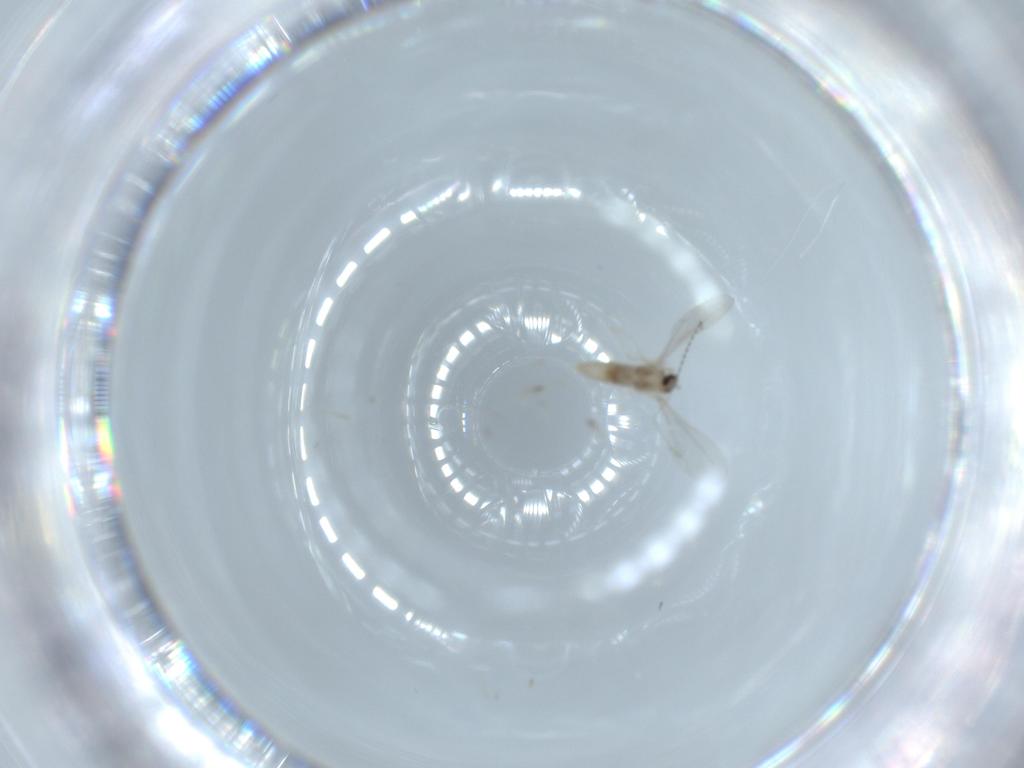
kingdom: Animalia
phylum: Arthropoda
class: Insecta
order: Diptera
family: Cecidomyiidae
